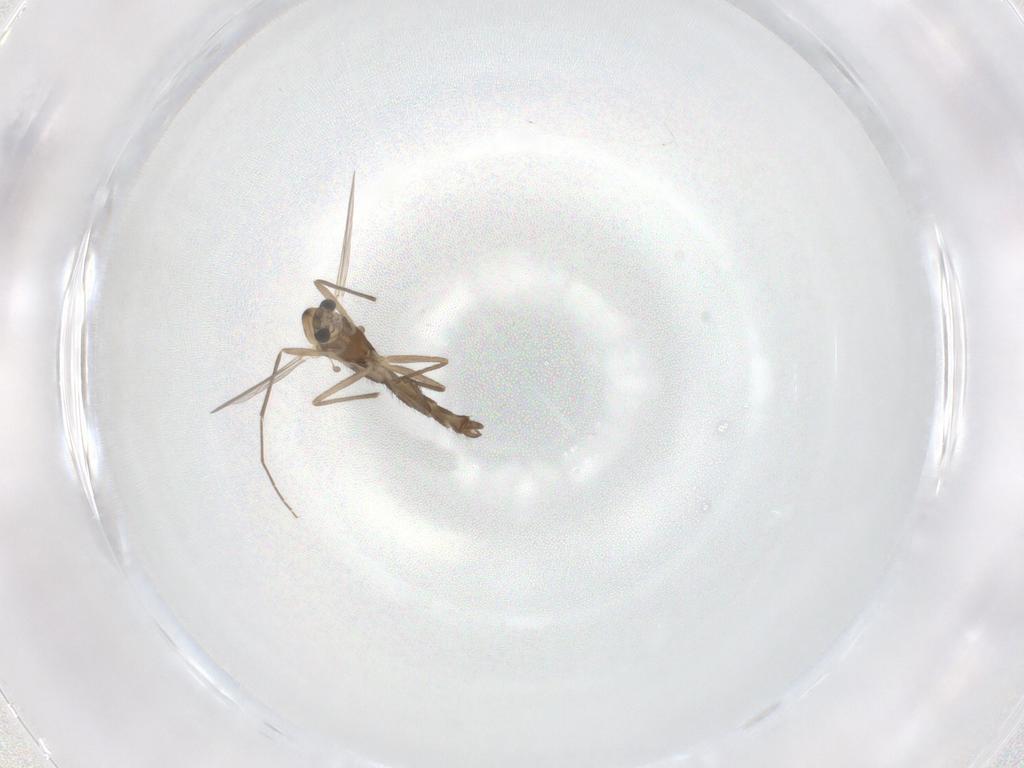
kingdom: Animalia
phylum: Arthropoda
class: Insecta
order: Diptera
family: Chironomidae
